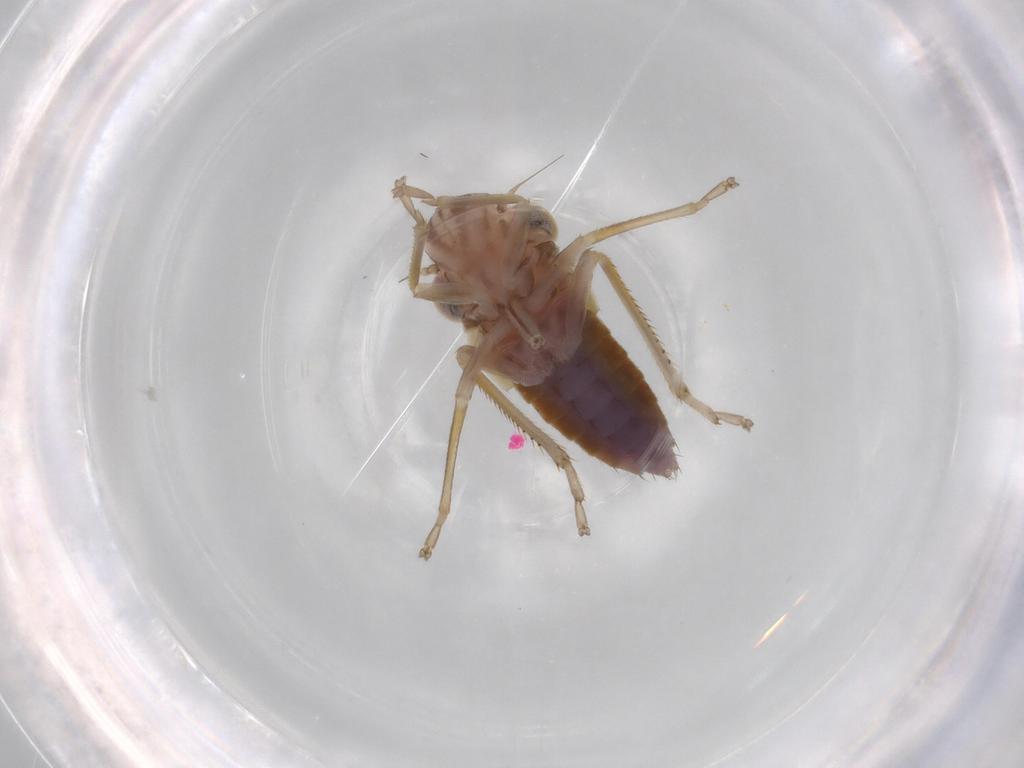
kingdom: Animalia
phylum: Arthropoda
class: Insecta
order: Hemiptera
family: Cicadellidae
